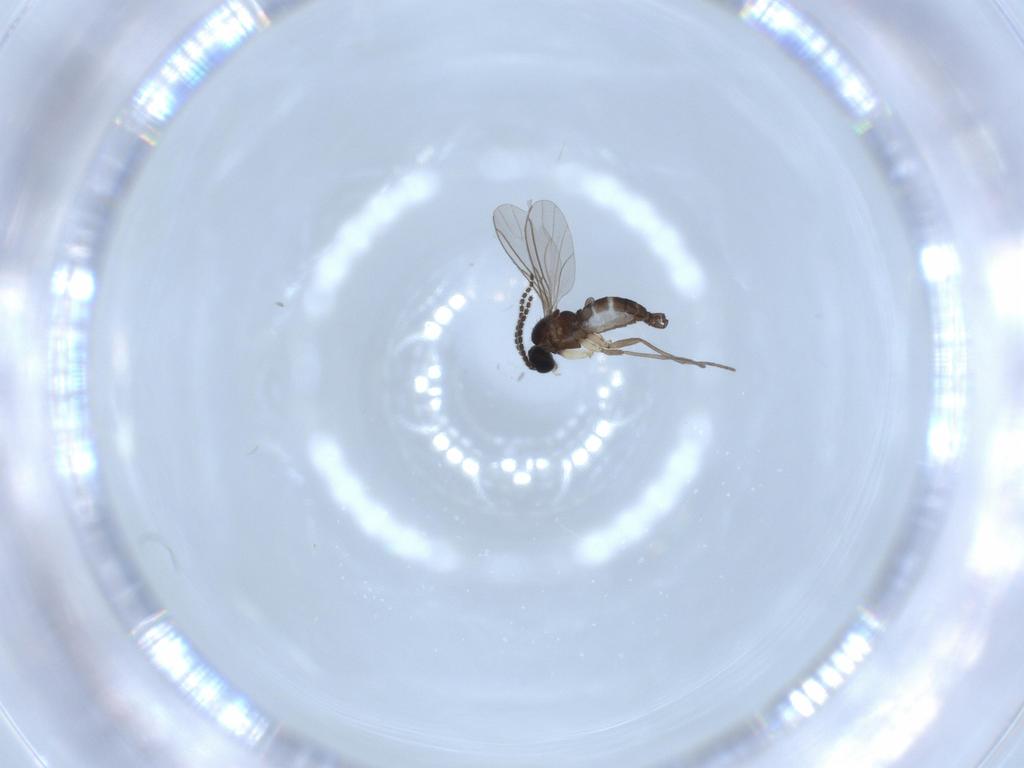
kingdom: Animalia
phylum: Arthropoda
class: Insecta
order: Diptera
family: Sciaridae
